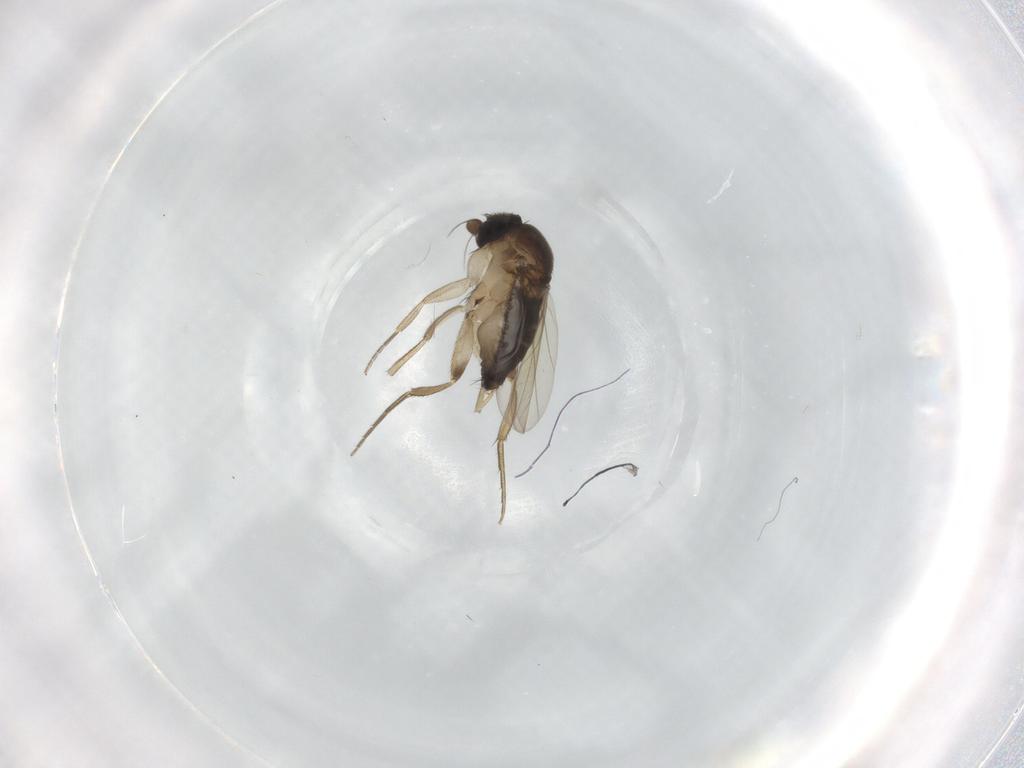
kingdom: Animalia
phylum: Arthropoda
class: Insecta
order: Diptera
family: Phoridae
